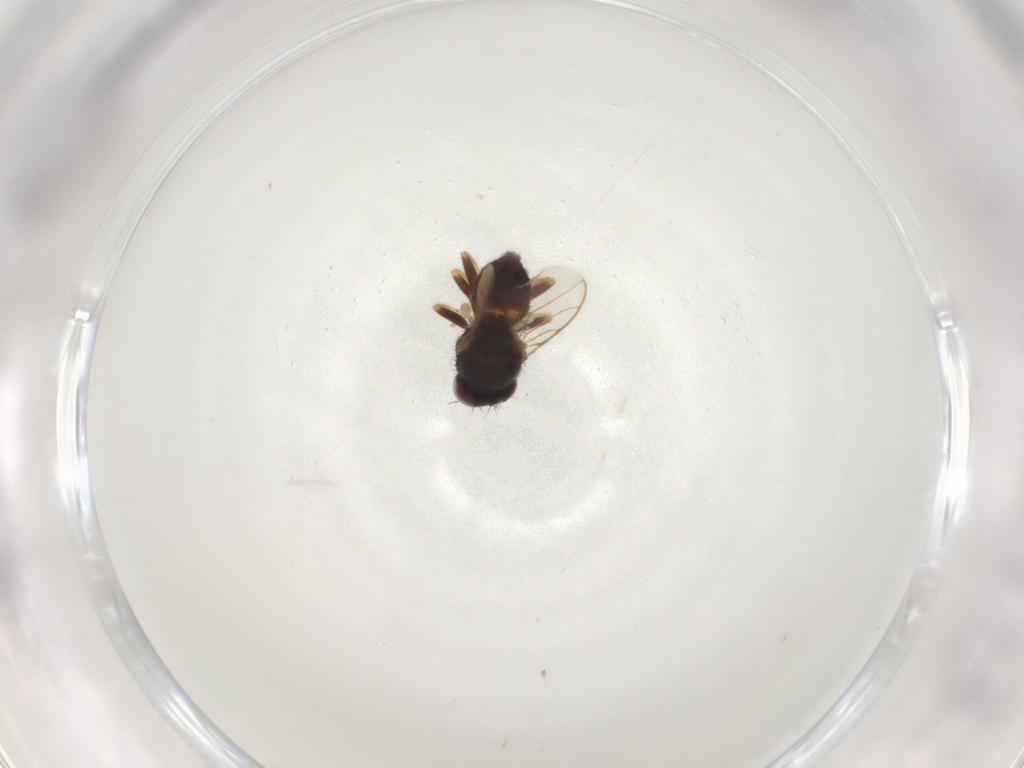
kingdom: Animalia
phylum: Arthropoda
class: Insecta
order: Diptera
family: Chloropidae
